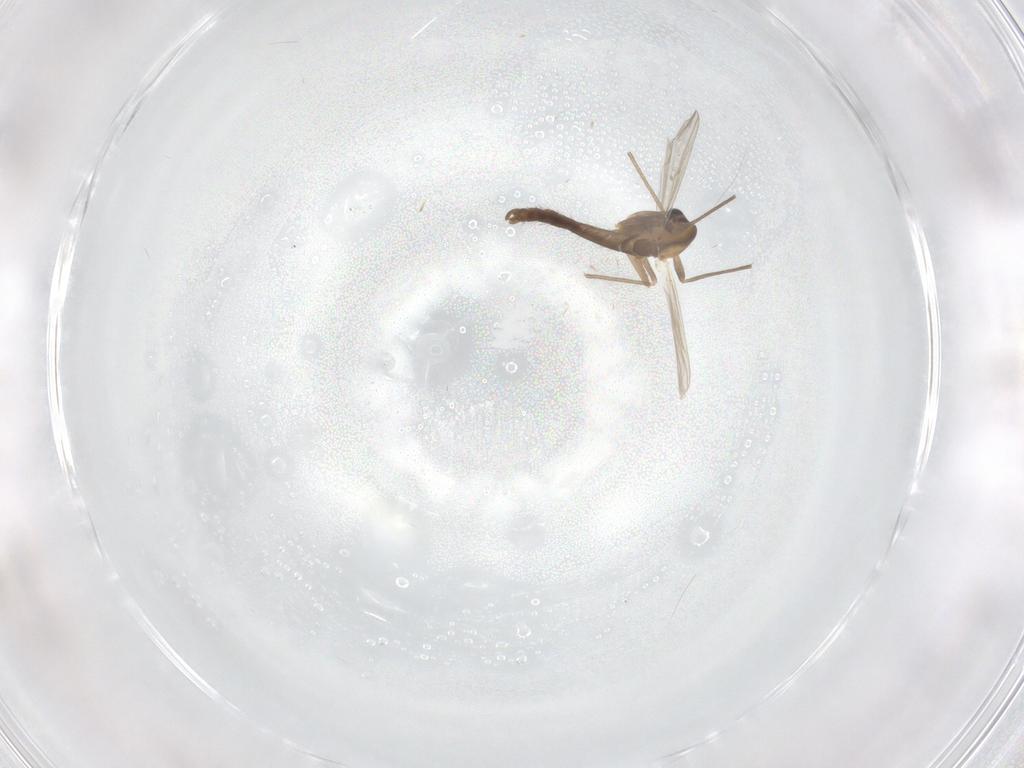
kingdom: Animalia
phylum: Arthropoda
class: Insecta
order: Diptera
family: Chironomidae
